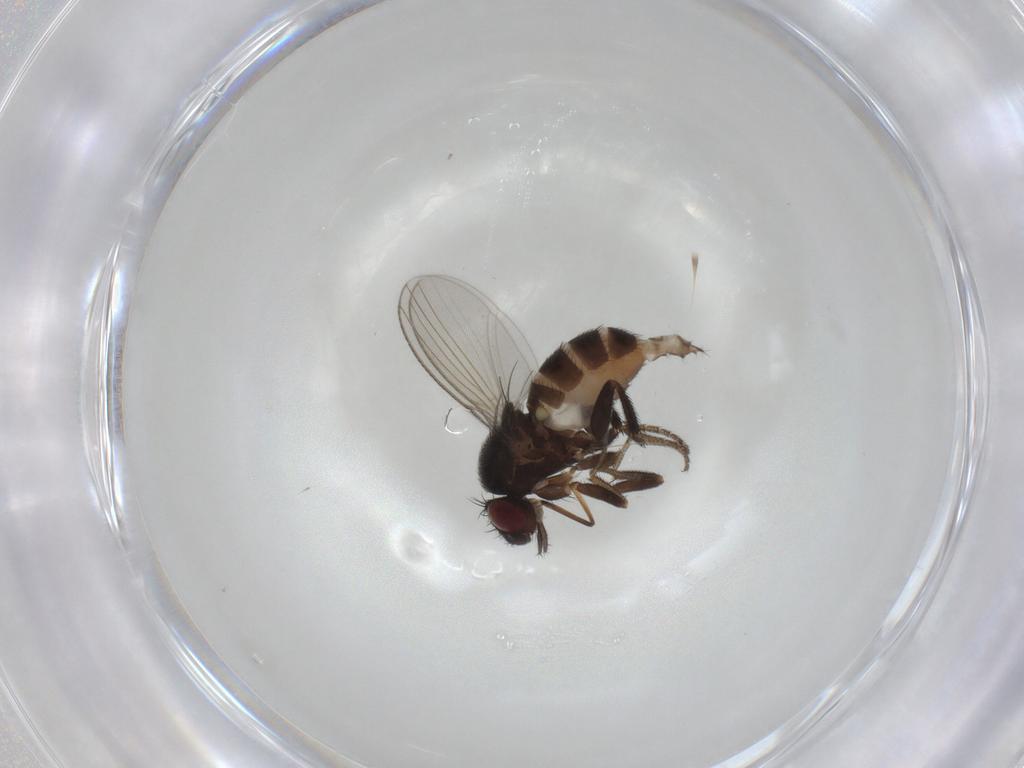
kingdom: Animalia
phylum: Arthropoda
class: Insecta
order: Diptera
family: Milichiidae
